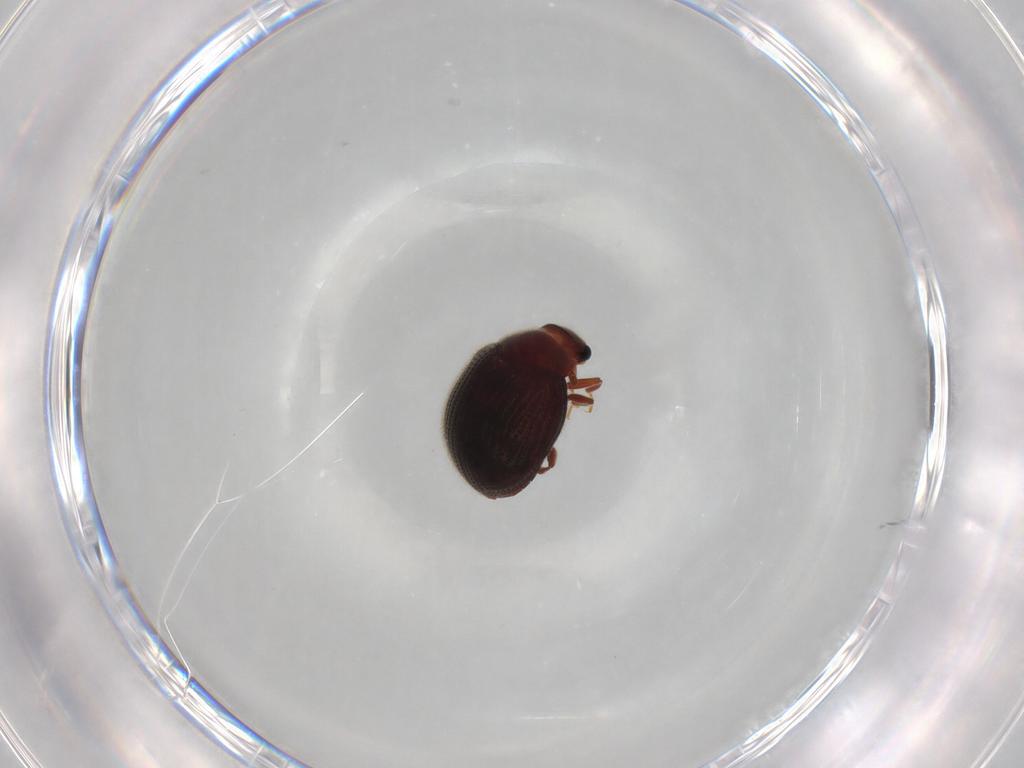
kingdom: Animalia
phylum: Arthropoda
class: Insecta
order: Coleoptera
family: Sphindidae
